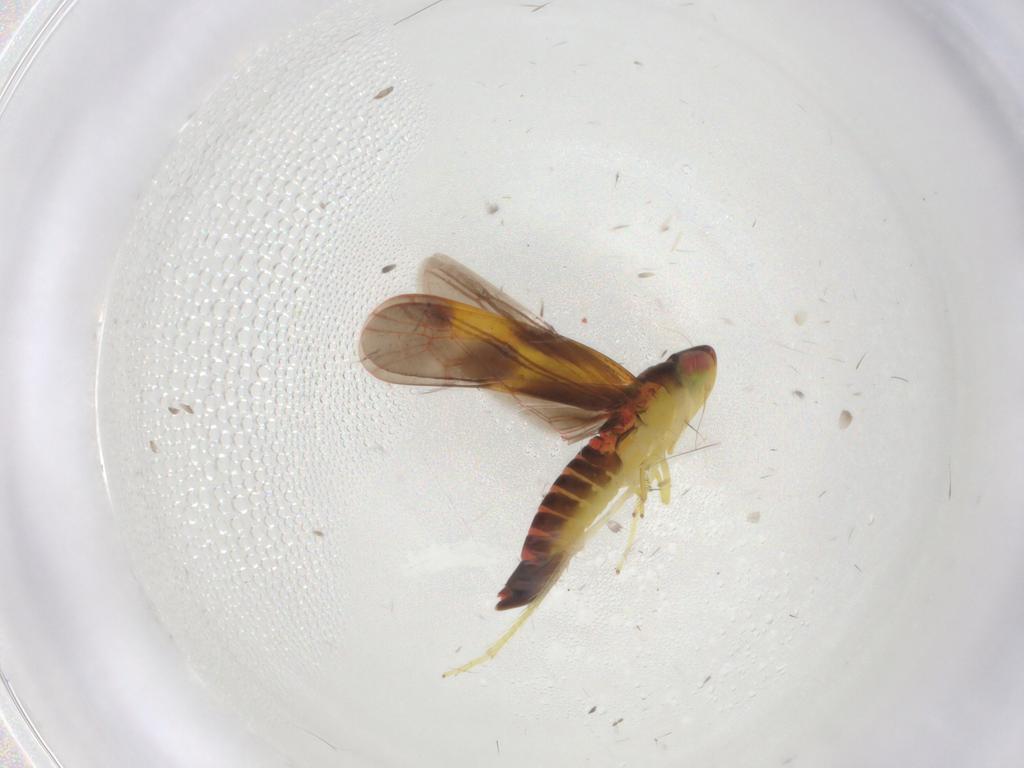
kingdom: Animalia
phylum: Arthropoda
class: Insecta
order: Hemiptera
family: Cicadellidae
